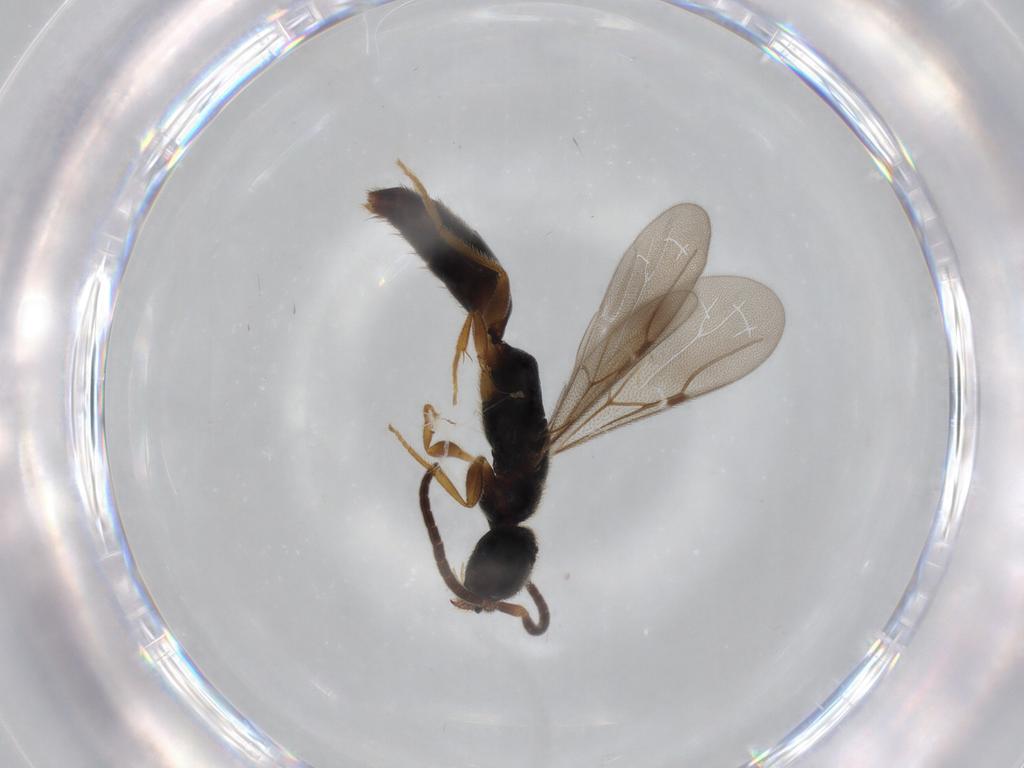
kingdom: Animalia
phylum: Arthropoda
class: Insecta
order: Hymenoptera
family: Bethylidae
